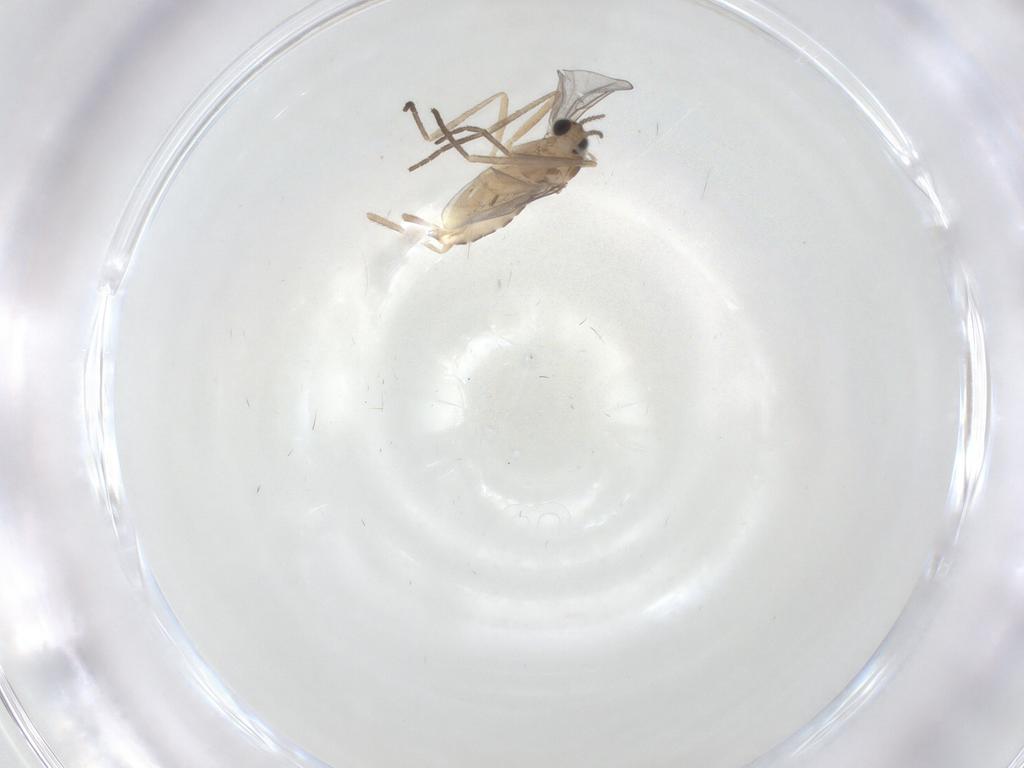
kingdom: Animalia
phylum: Arthropoda
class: Insecta
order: Diptera
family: Cecidomyiidae
